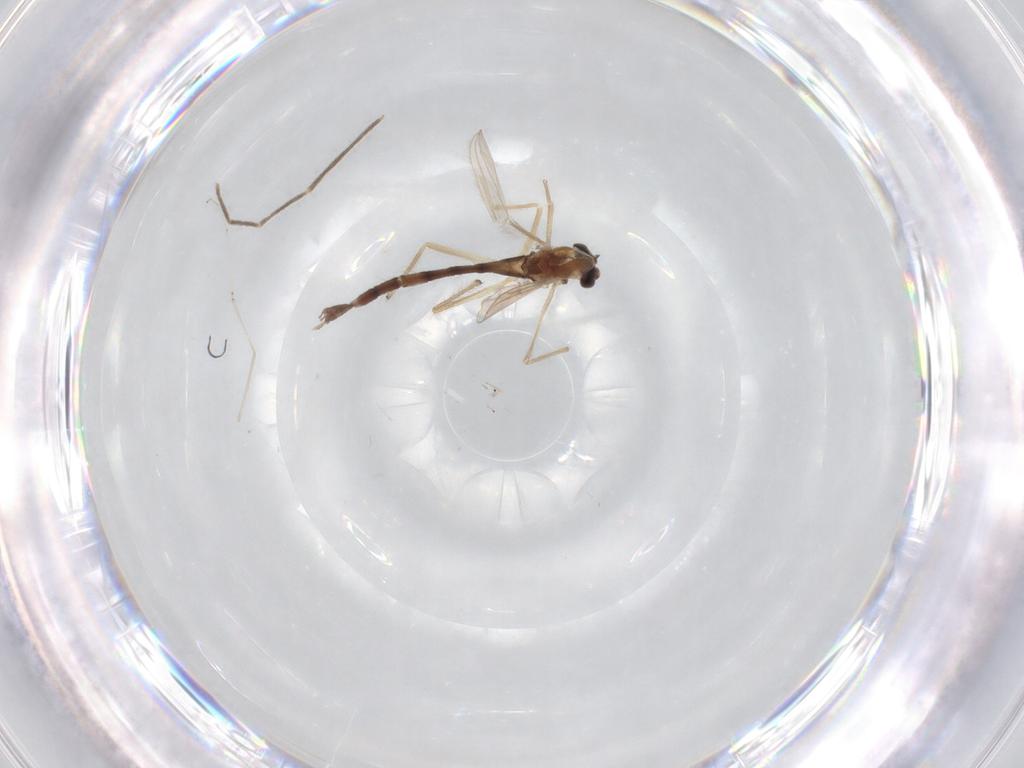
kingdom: Animalia
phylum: Arthropoda
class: Insecta
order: Diptera
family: Chironomidae
